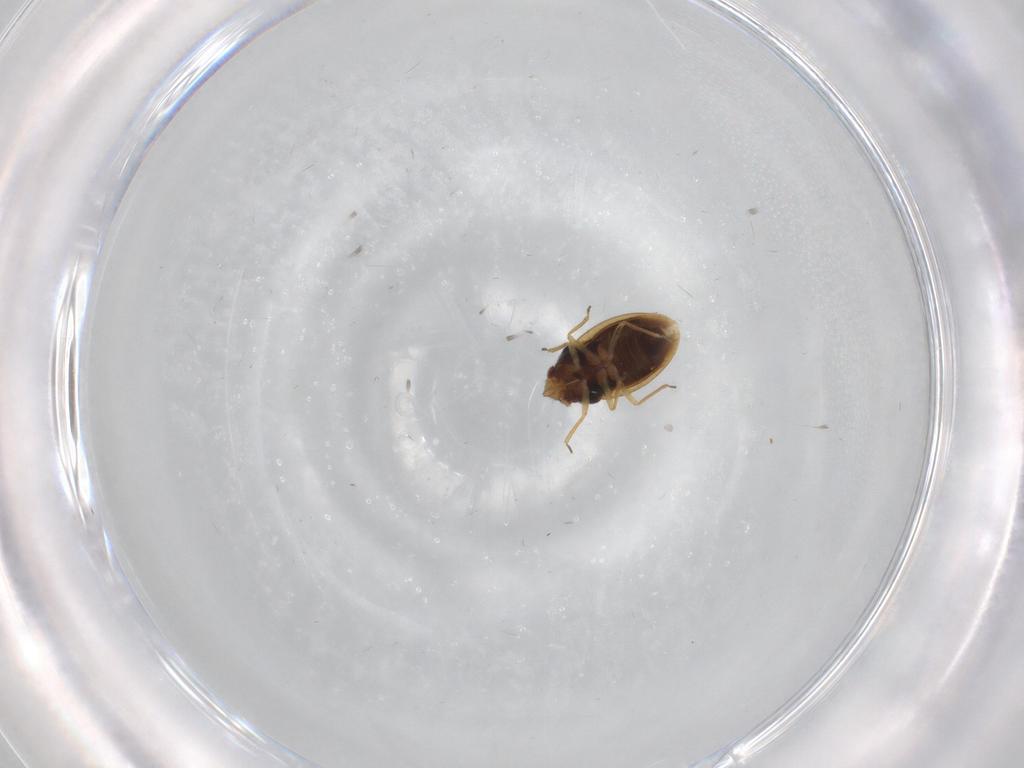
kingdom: Animalia
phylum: Arthropoda
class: Insecta
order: Hemiptera
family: Schizopteridae
